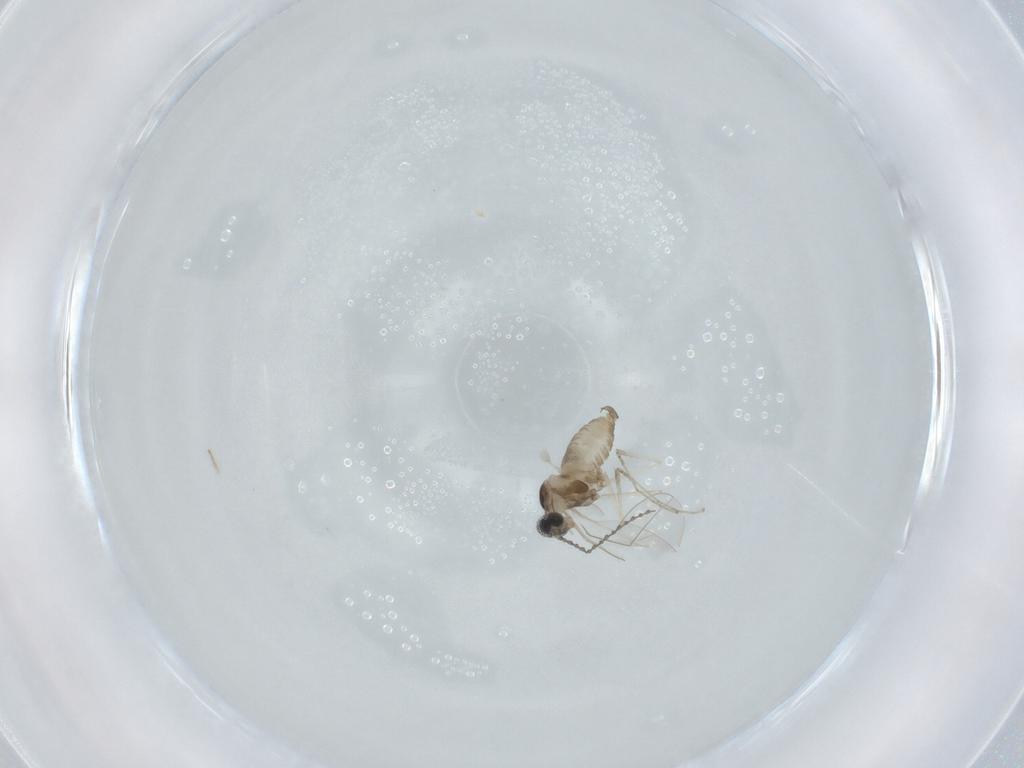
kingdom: Animalia
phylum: Arthropoda
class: Insecta
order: Diptera
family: Cecidomyiidae
